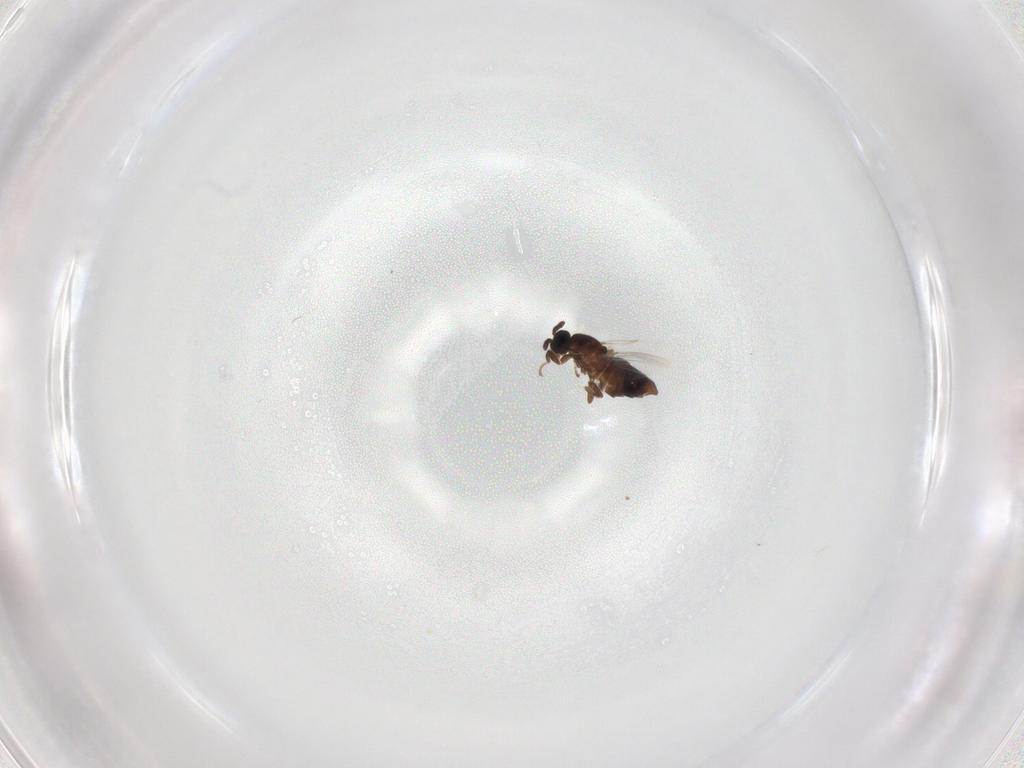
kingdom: Animalia
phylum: Arthropoda
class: Insecta
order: Diptera
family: Scatopsidae
